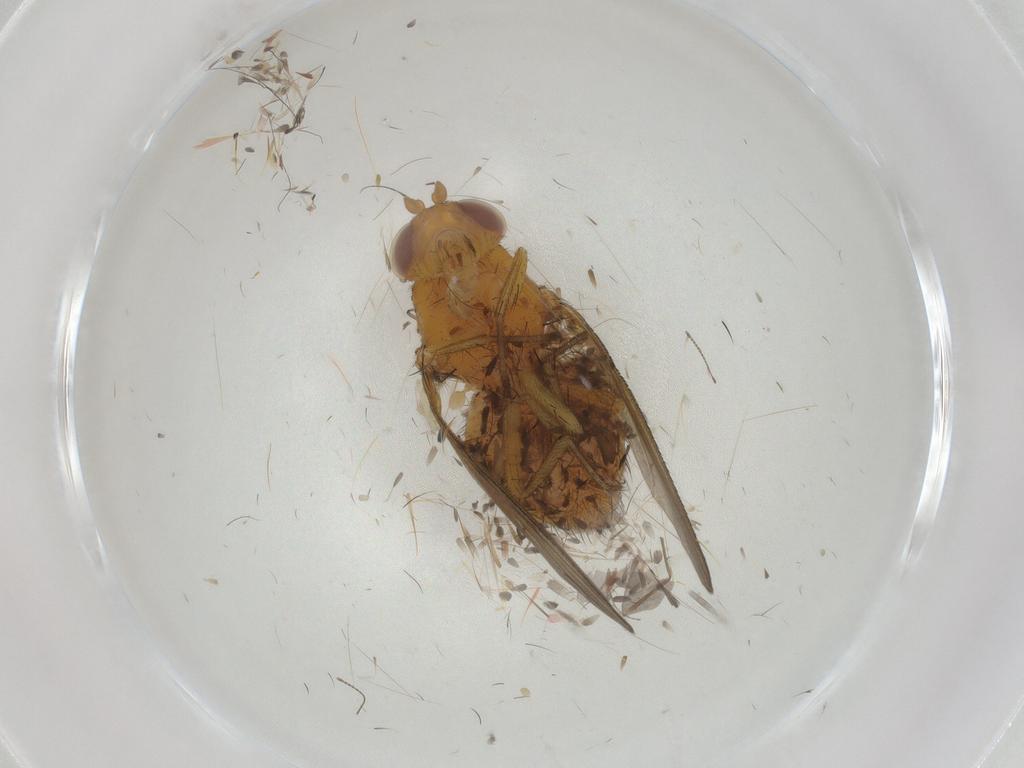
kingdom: Animalia
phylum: Arthropoda
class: Insecta
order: Diptera
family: Psychodidae
